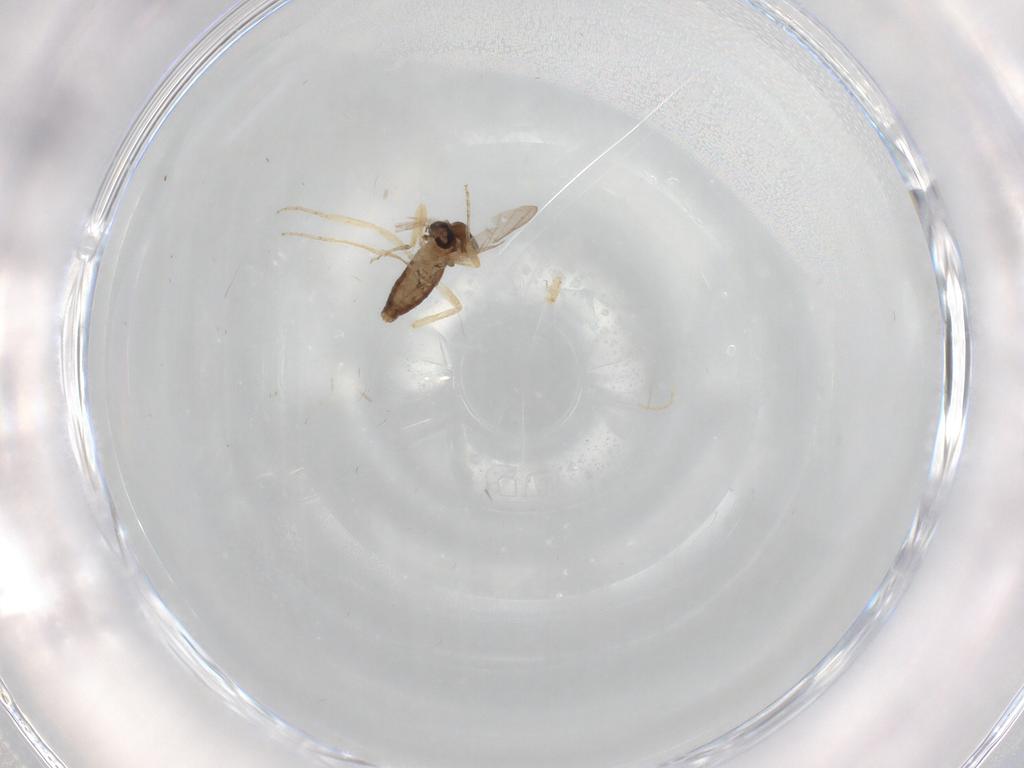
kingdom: Animalia
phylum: Arthropoda
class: Insecta
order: Diptera
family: Ceratopogonidae
